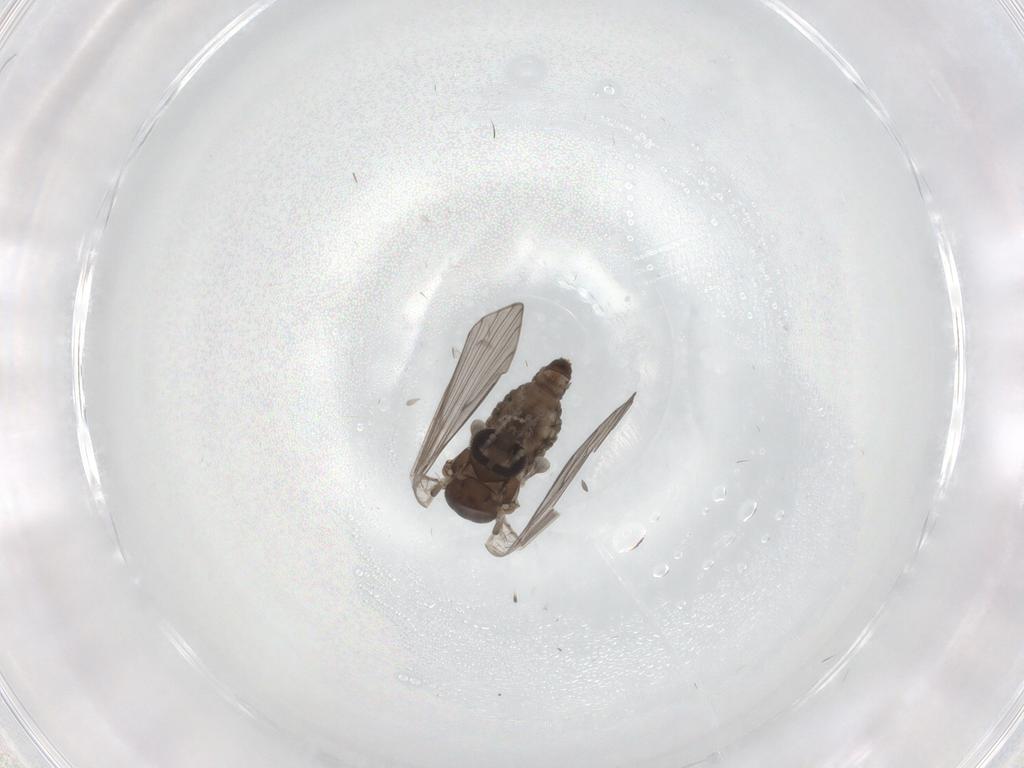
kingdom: Animalia
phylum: Arthropoda
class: Insecta
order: Diptera
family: Psychodidae
